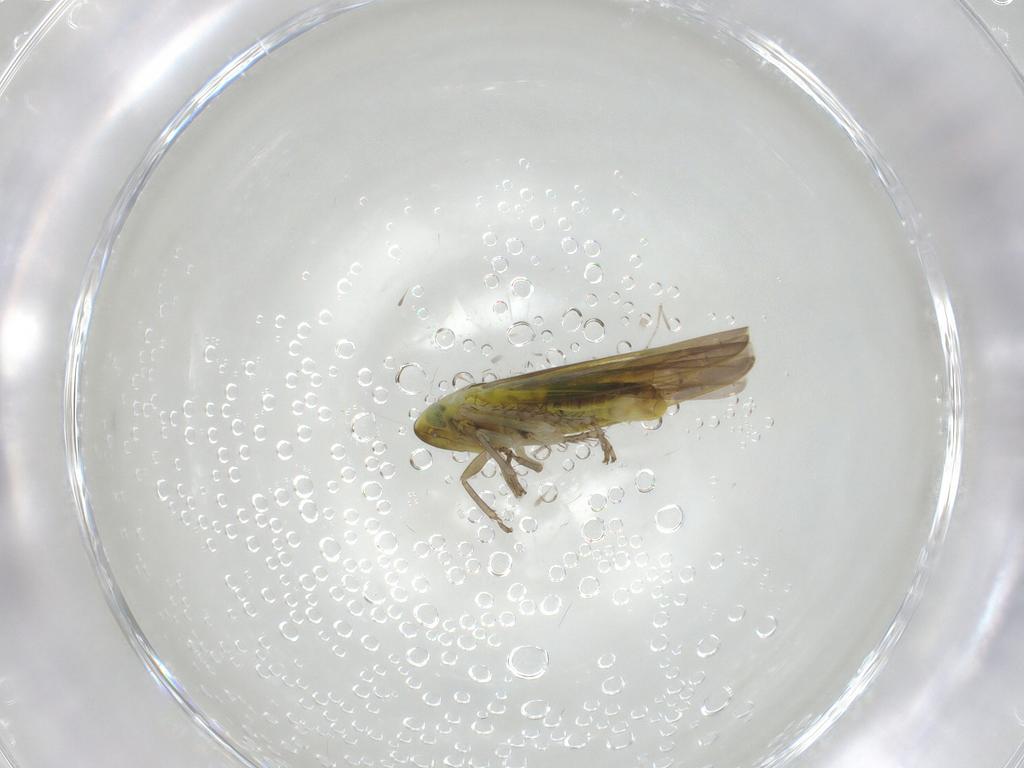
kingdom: Animalia
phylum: Arthropoda
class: Insecta
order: Hemiptera
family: Cicadellidae
